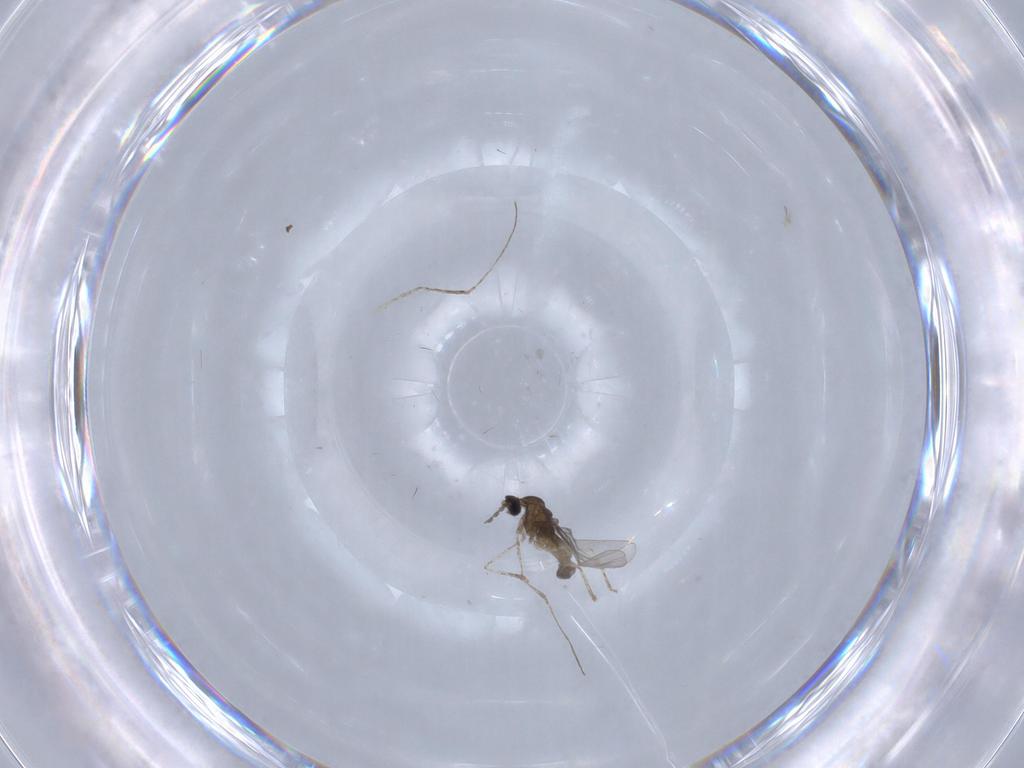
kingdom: Animalia
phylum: Arthropoda
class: Insecta
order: Diptera
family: Cecidomyiidae
